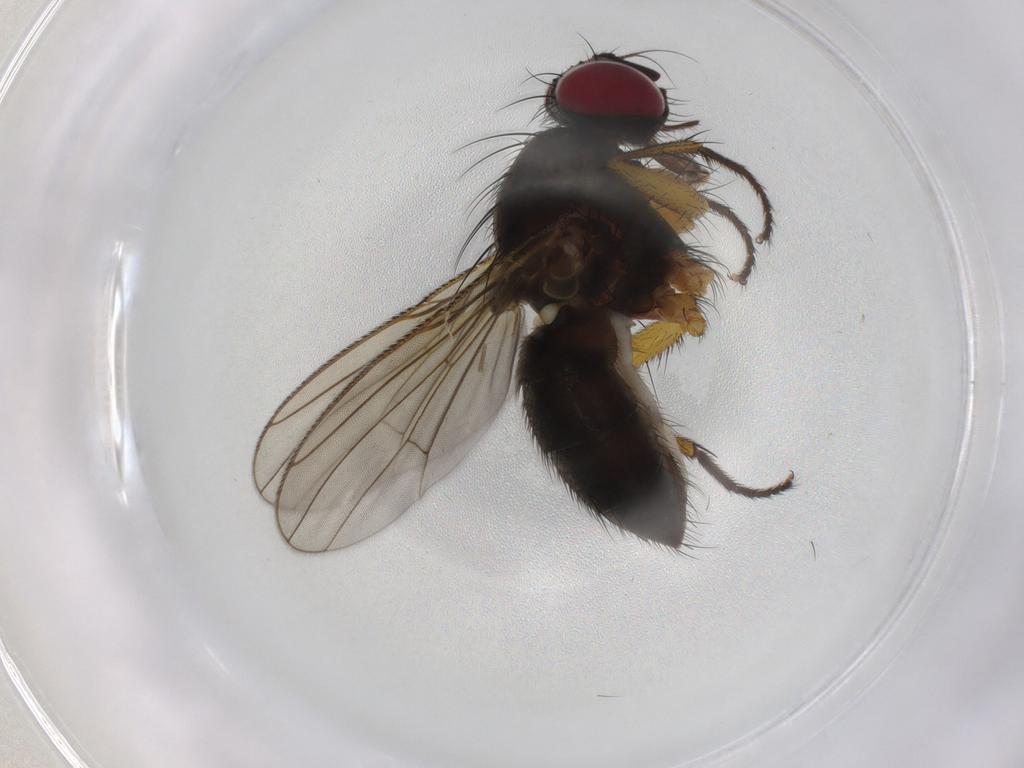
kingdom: Animalia
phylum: Arthropoda
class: Insecta
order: Diptera
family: Muscidae
